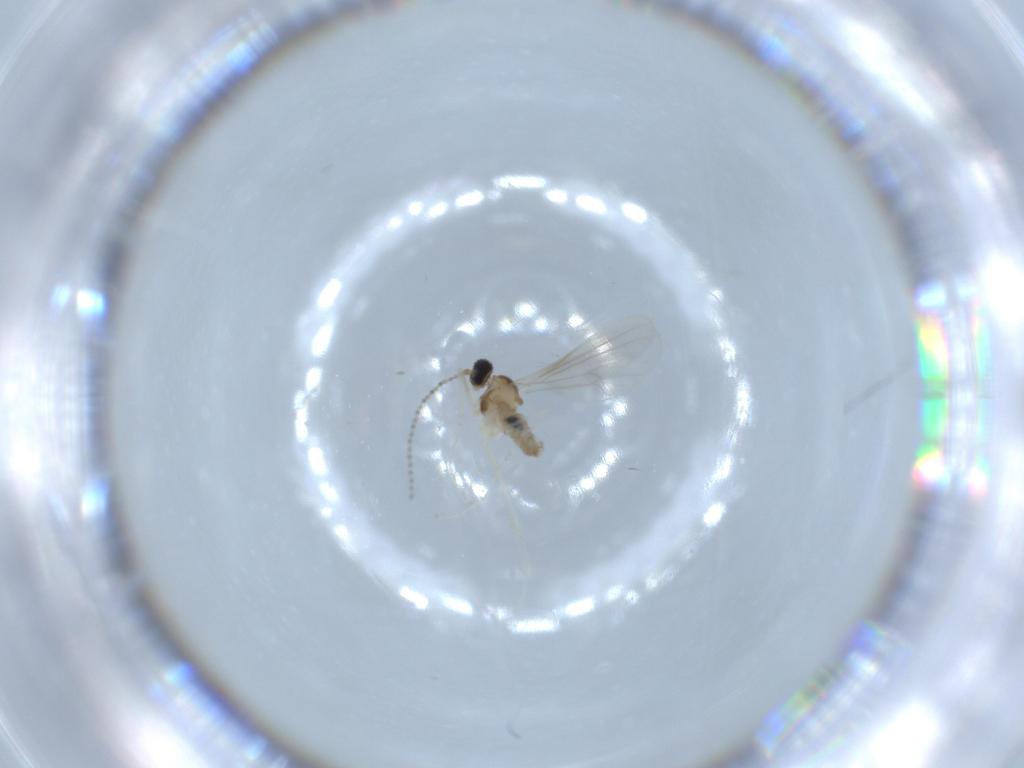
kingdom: Animalia
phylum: Arthropoda
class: Insecta
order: Diptera
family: Cecidomyiidae
